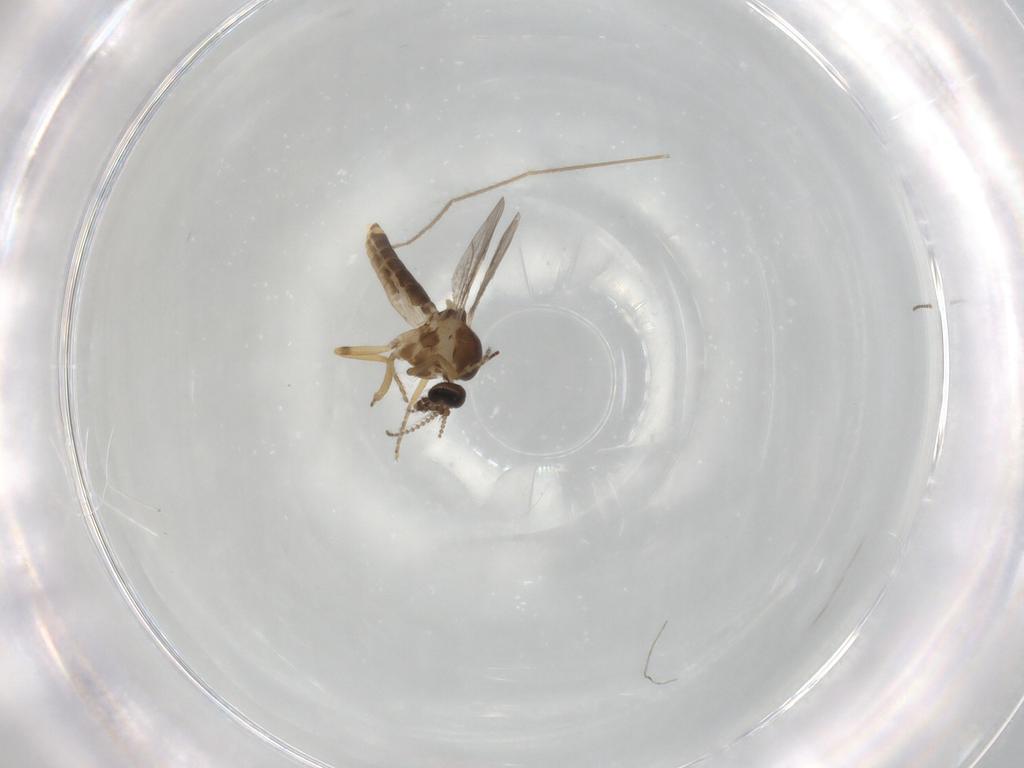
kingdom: Animalia
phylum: Arthropoda
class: Insecta
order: Diptera
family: Ceratopogonidae
